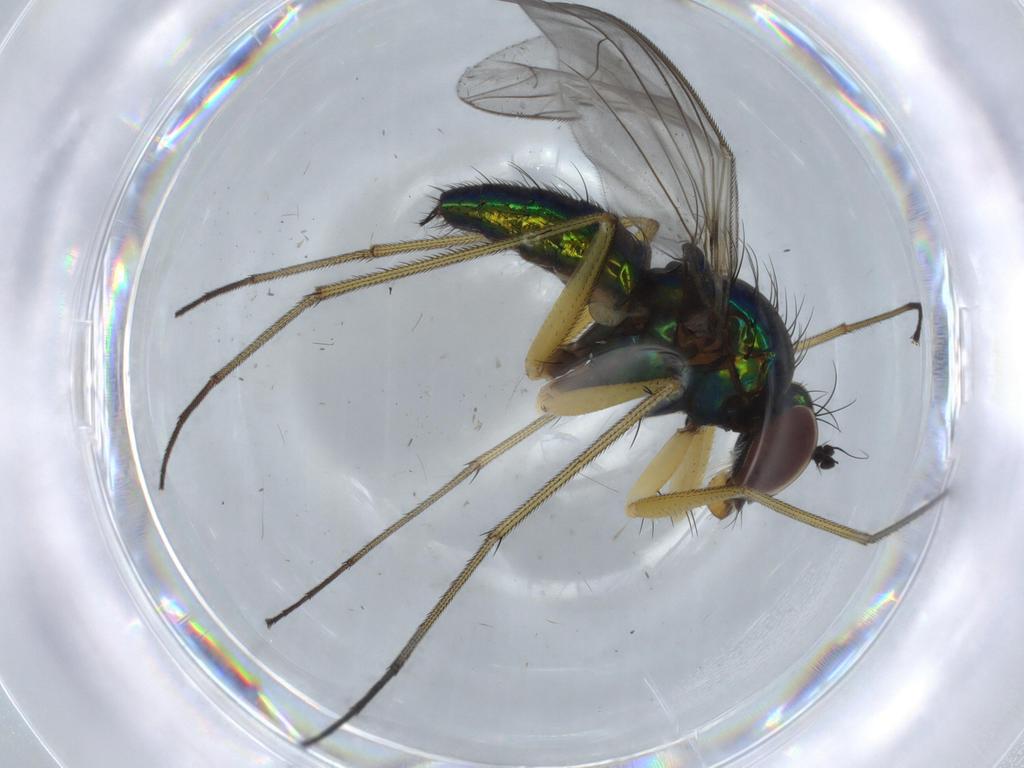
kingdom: Animalia
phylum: Arthropoda
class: Insecta
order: Diptera
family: Dolichopodidae
